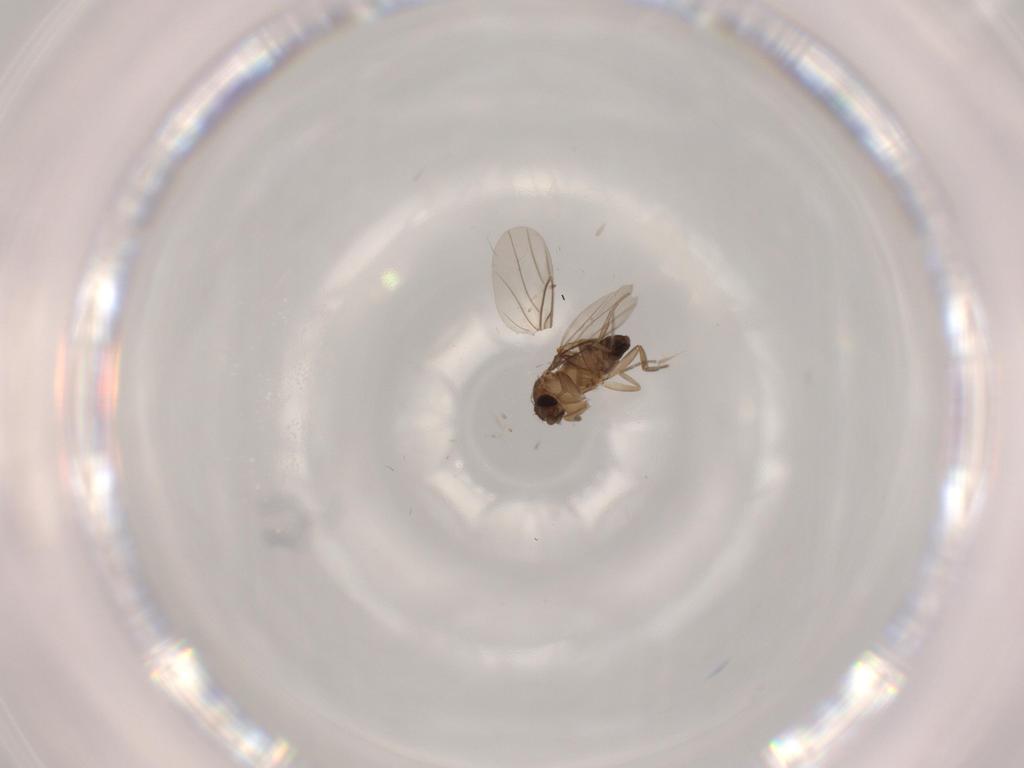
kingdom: Animalia
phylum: Arthropoda
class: Insecta
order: Diptera
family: Phoridae
